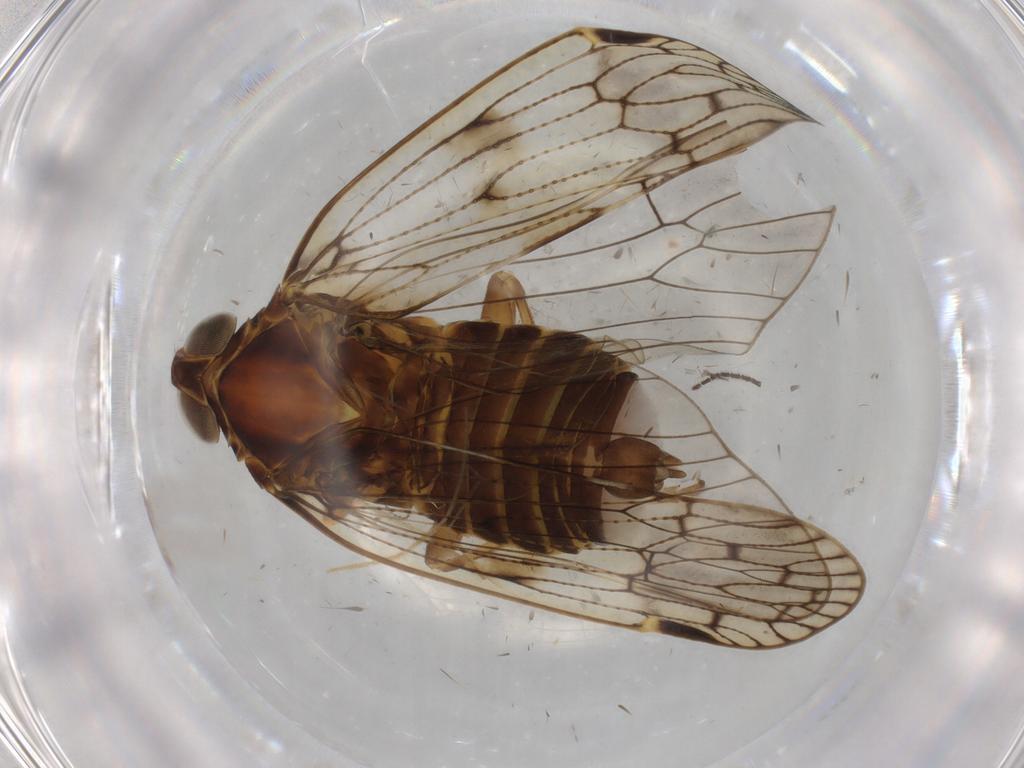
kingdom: Animalia
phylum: Arthropoda
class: Insecta
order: Hemiptera
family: Cixiidae
